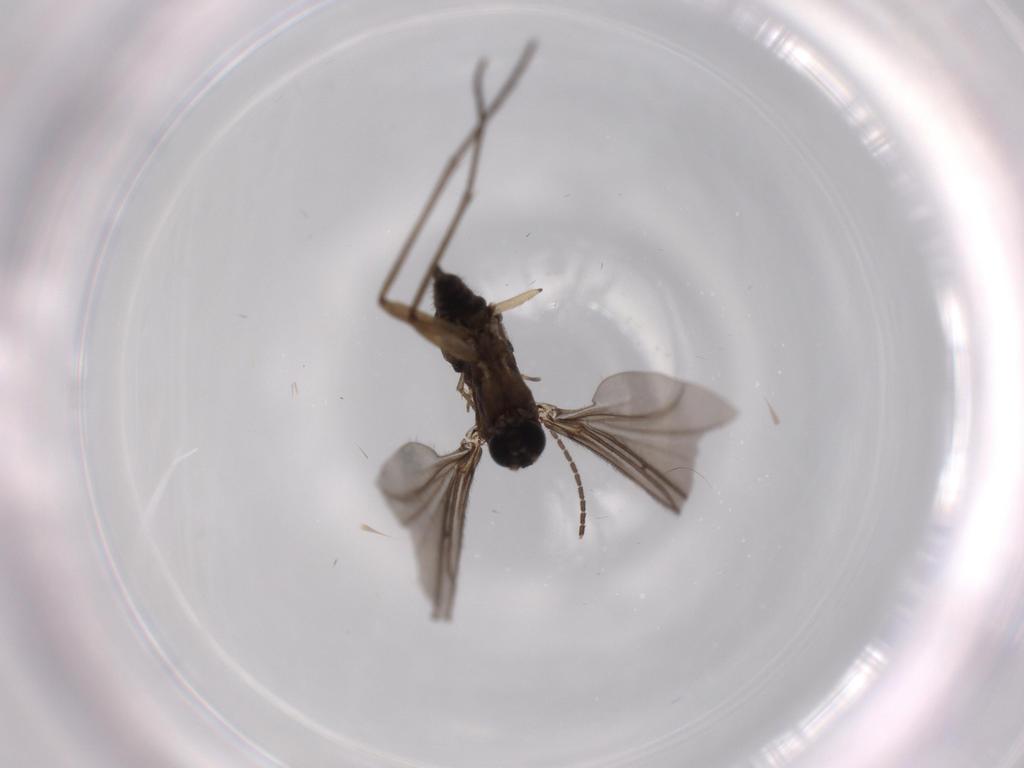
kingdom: Animalia
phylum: Arthropoda
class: Insecta
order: Diptera
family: Sciaridae
